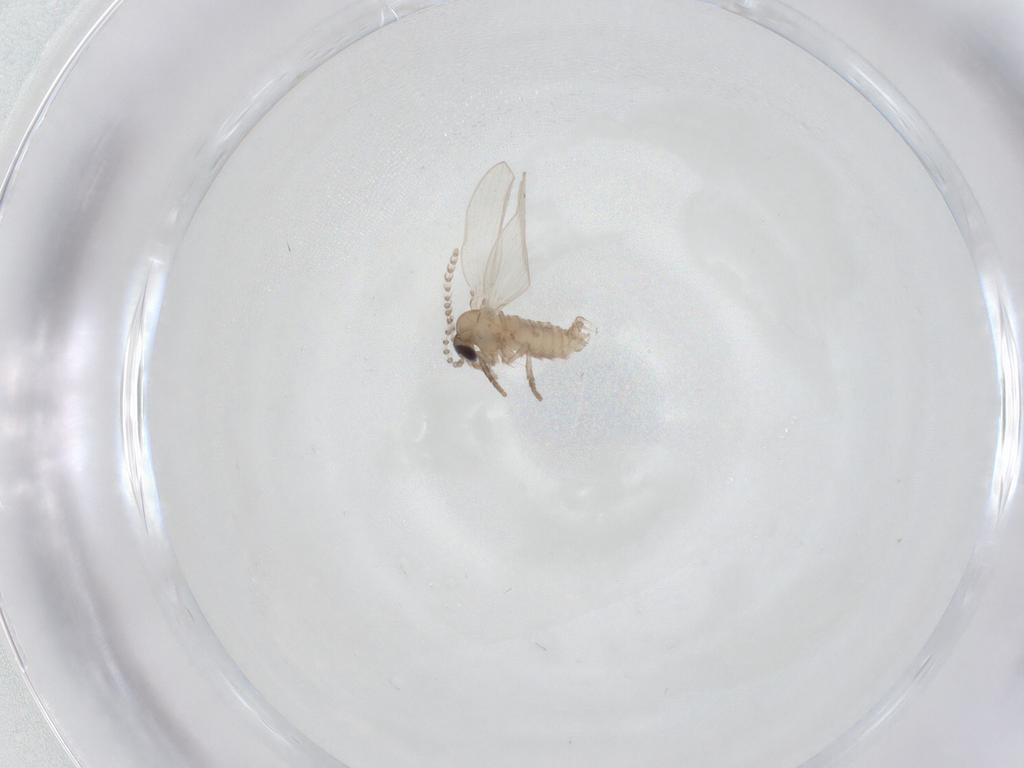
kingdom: Animalia
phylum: Arthropoda
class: Insecta
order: Diptera
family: Psychodidae
